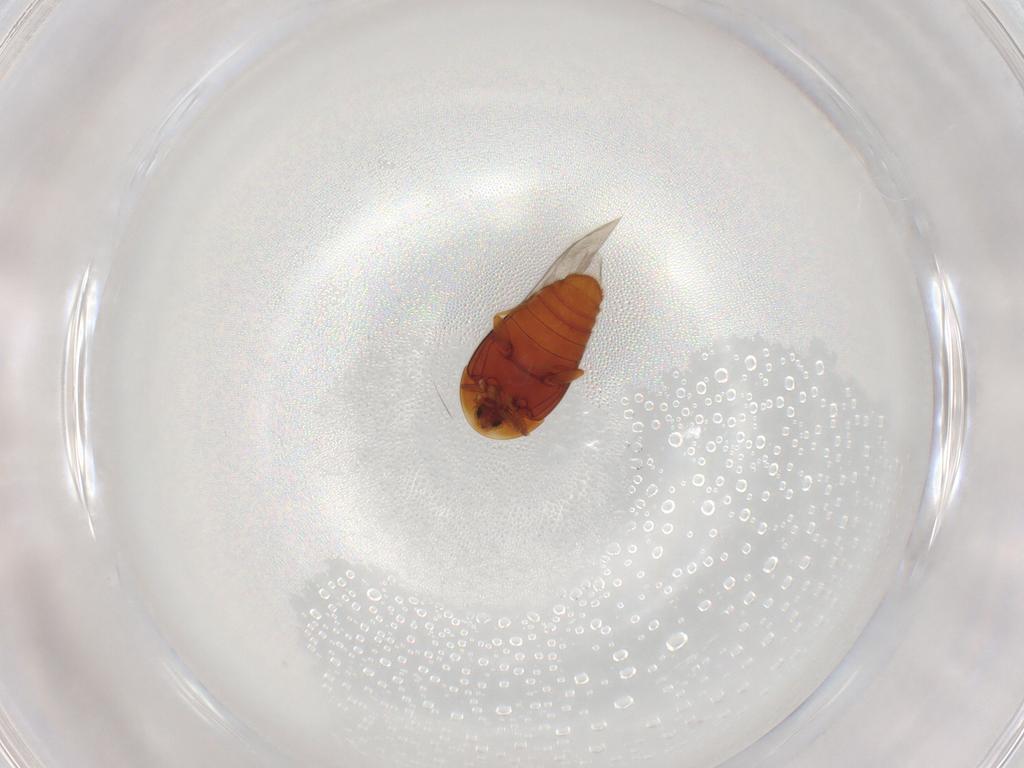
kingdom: Animalia
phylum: Arthropoda
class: Insecta
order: Coleoptera
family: Corylophidae
